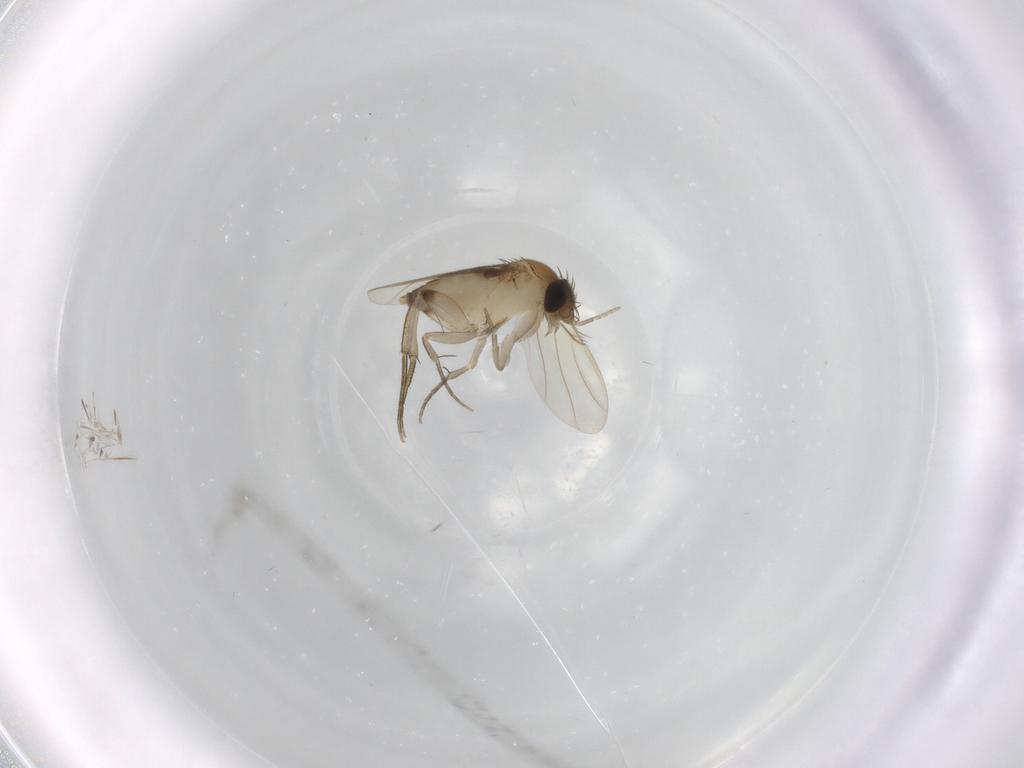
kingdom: Animalia
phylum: Arthropoda
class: Insecta
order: Diptera
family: Phoridae
